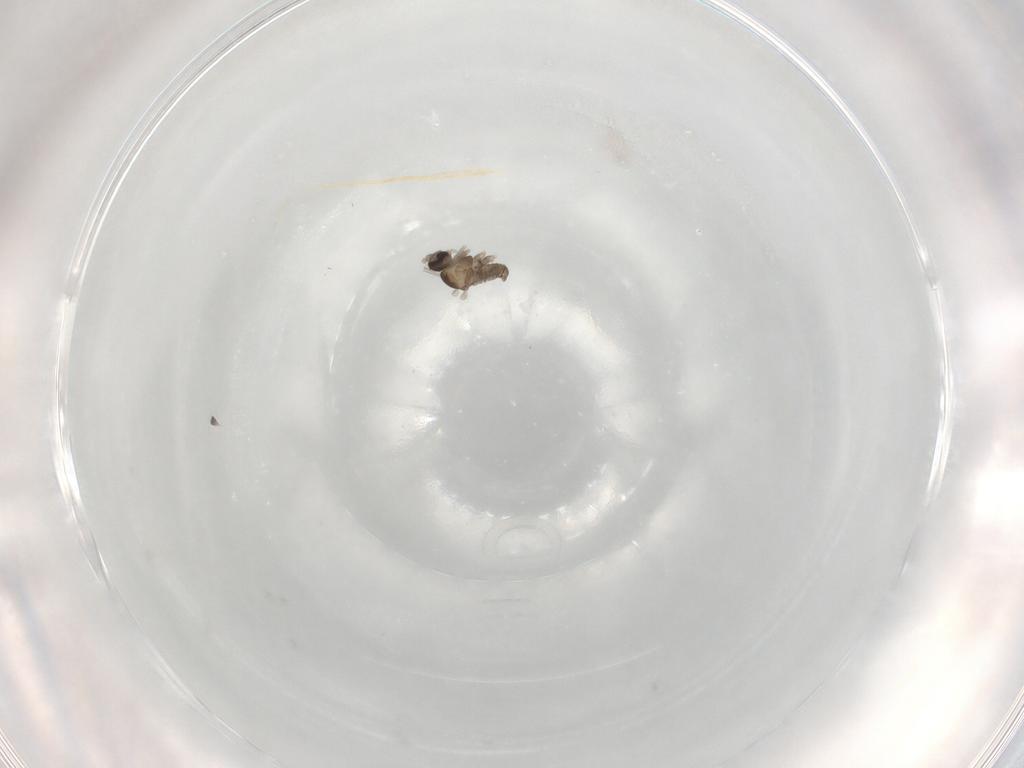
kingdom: Animalia
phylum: Arthropoda
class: Insecta
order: Diptera
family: Cecidomyiidae
